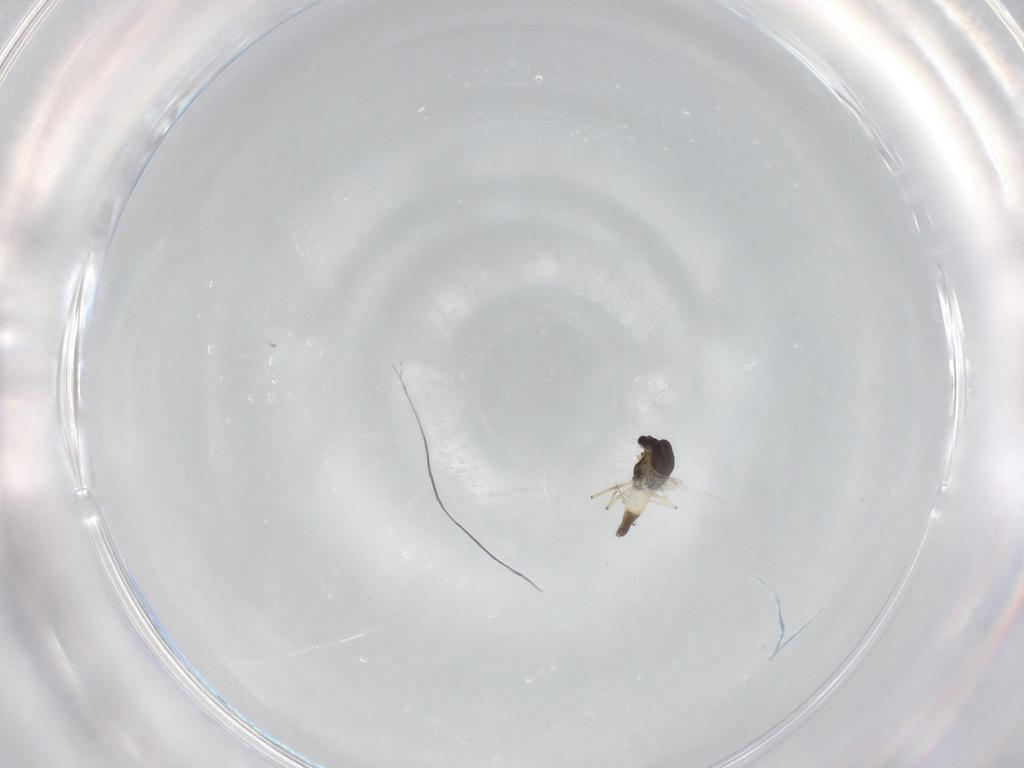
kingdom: Animalia
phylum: Arthropoda
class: Insecta
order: Diptera
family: Chironomidae
